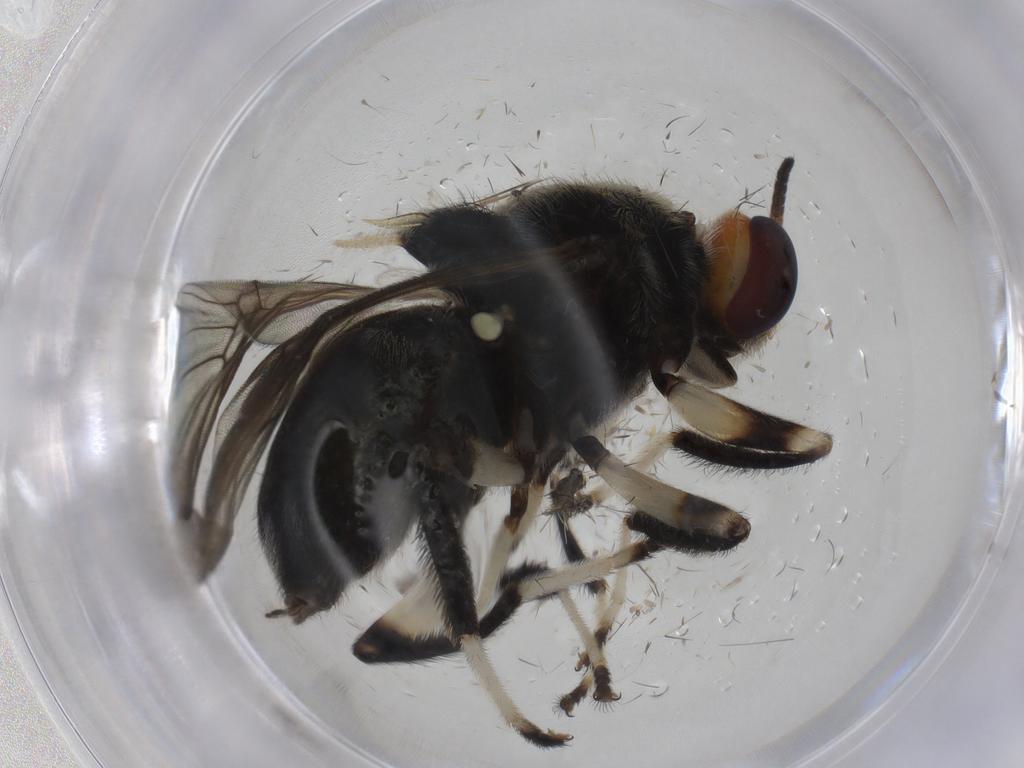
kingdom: Animalia
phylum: Arthropoda
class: Insecta
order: Diptera
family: Stratiomyidae
